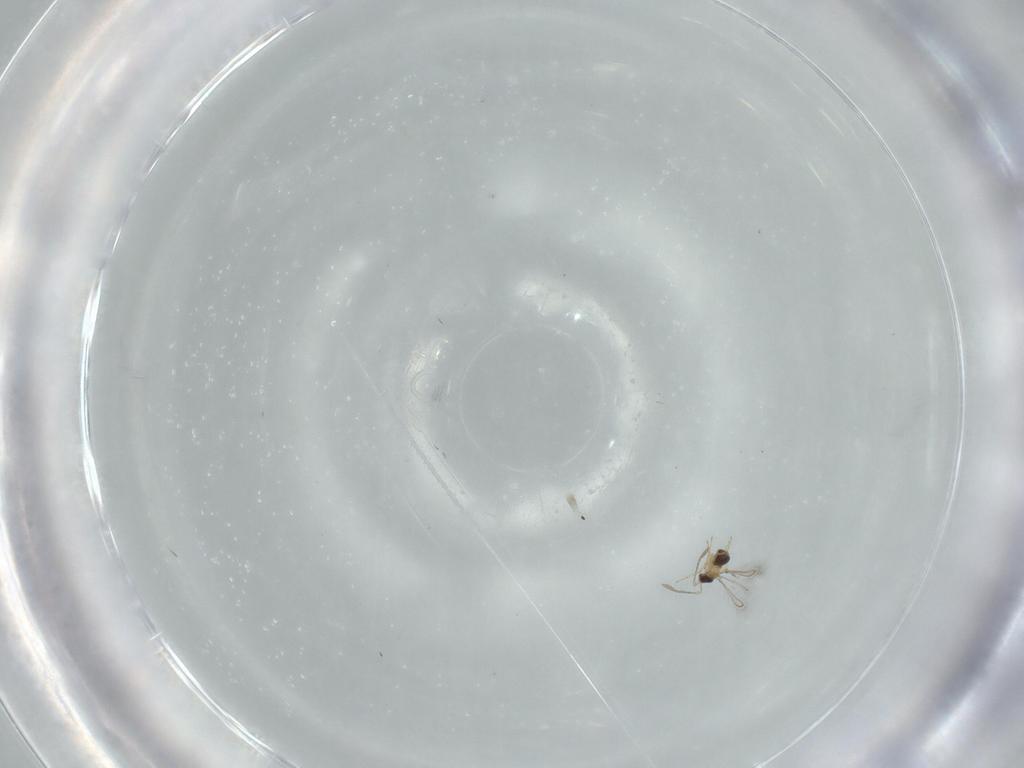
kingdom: Animalia
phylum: Arthropoda
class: Insecta
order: Hymenoptera
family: Mymaridae
